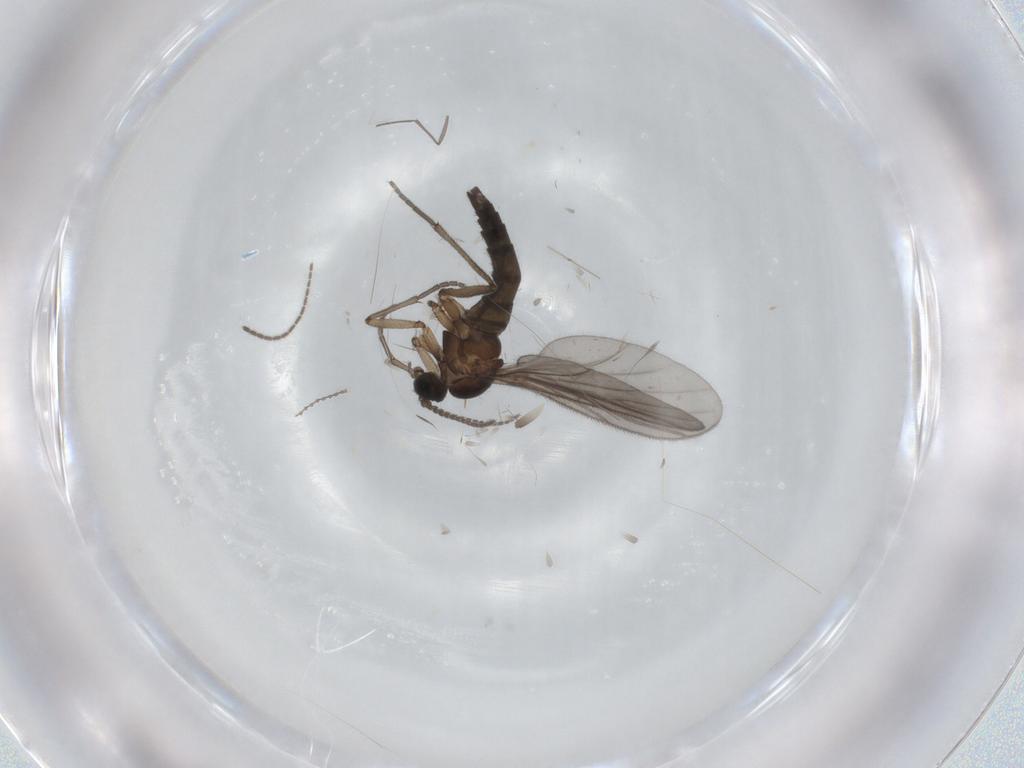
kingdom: Animalia
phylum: Arthropoda
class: Insecta
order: Diptera
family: Sciaridae
